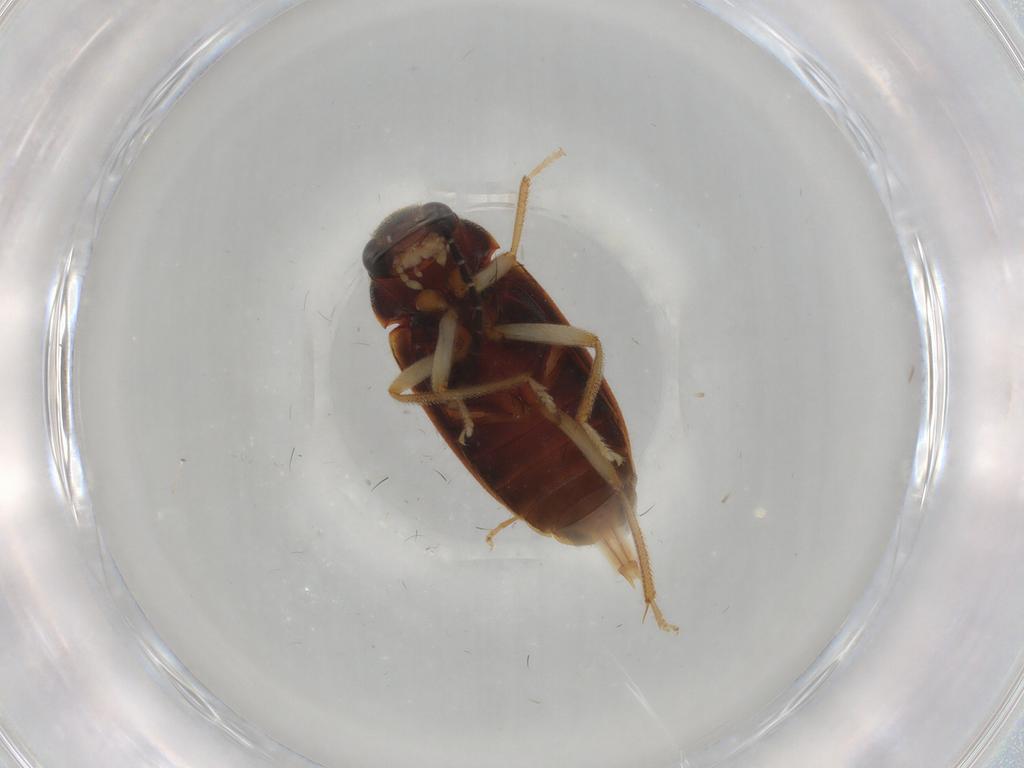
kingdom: Animalia
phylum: Arthropoda
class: Insecta
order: Coleoptera
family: Ptilodactylidae
